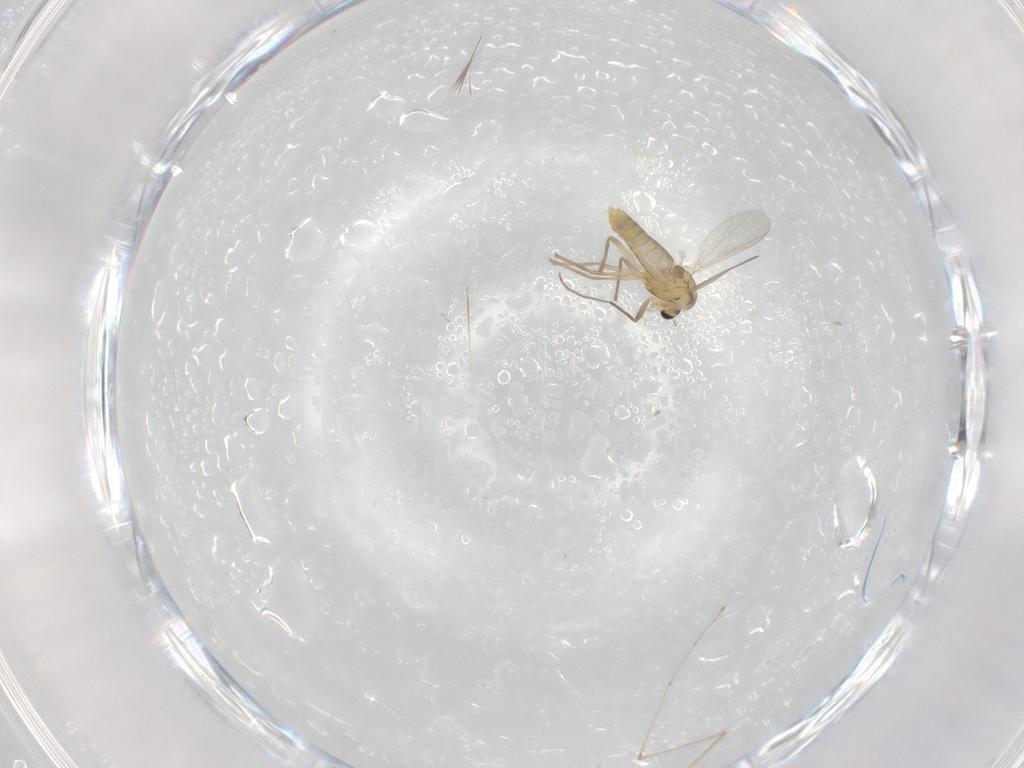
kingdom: Animalia
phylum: Arthropoda
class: Insecta
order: Diptera
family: Chironomidae
